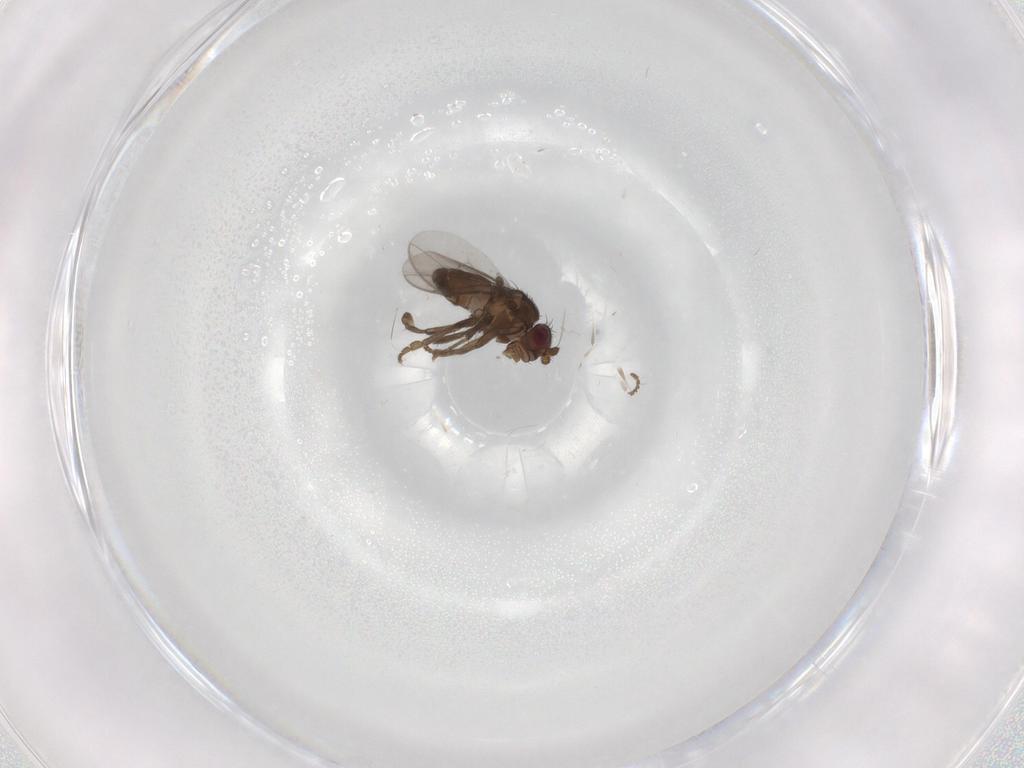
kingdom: Animalia
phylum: Arthropoda
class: Insecta
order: Diptera
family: Sphaeroceridae
